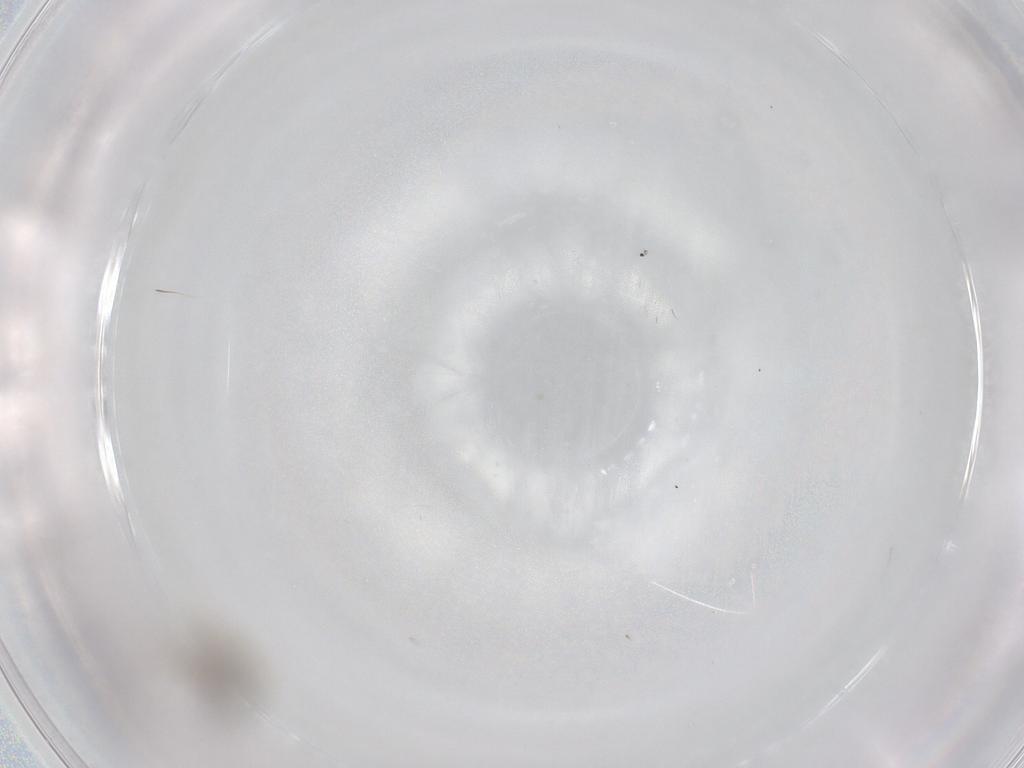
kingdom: Animalia
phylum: Arthropoda
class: Insecta
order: Diptera
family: Cecidomyiidae
